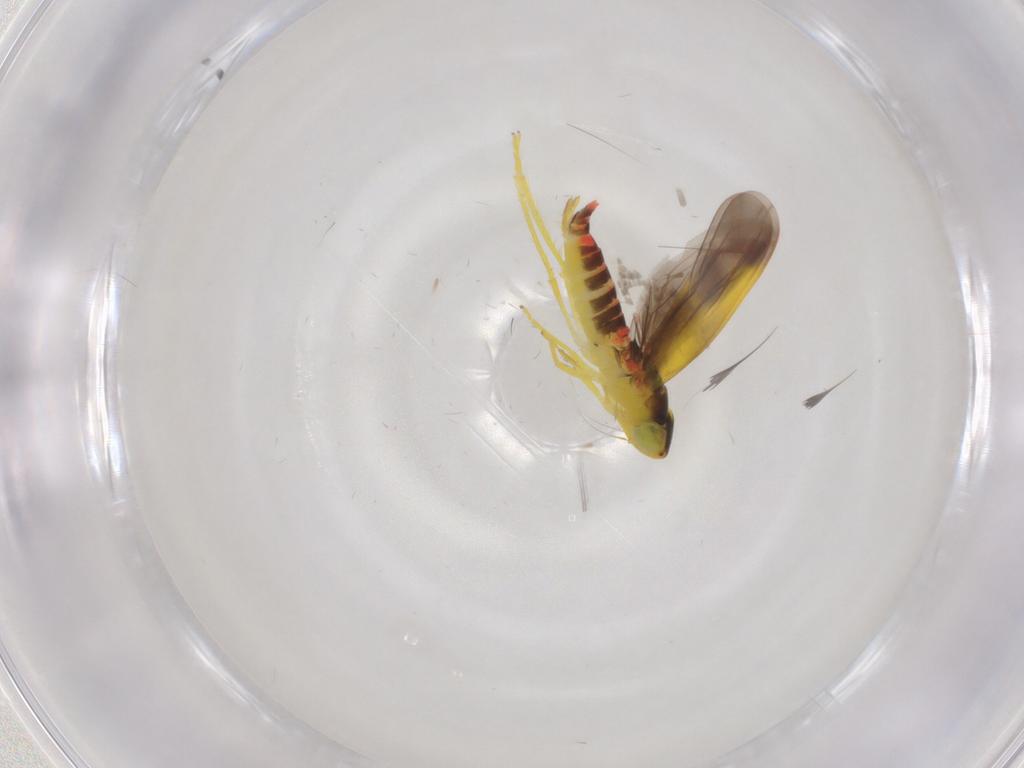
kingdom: Animalia
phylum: Arthropoda
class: Insecta
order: Hemiptera
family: Cicadellidae
